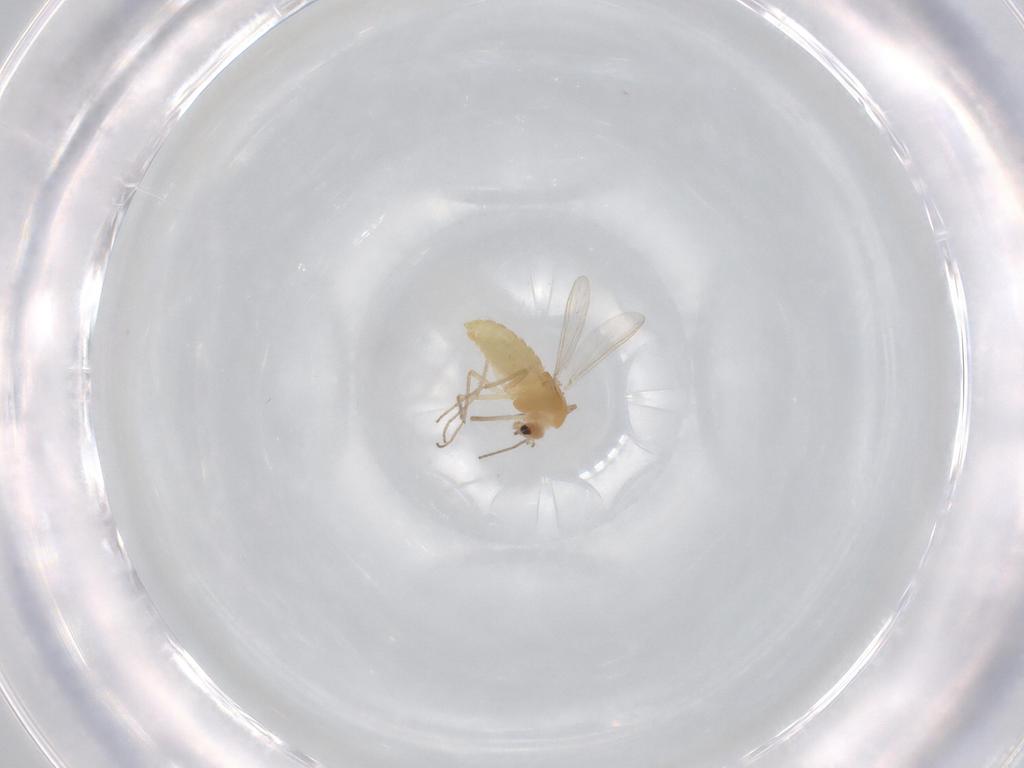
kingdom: Animalia
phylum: Arthropoda
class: Insecta
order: Diptera
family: Chironomidae
